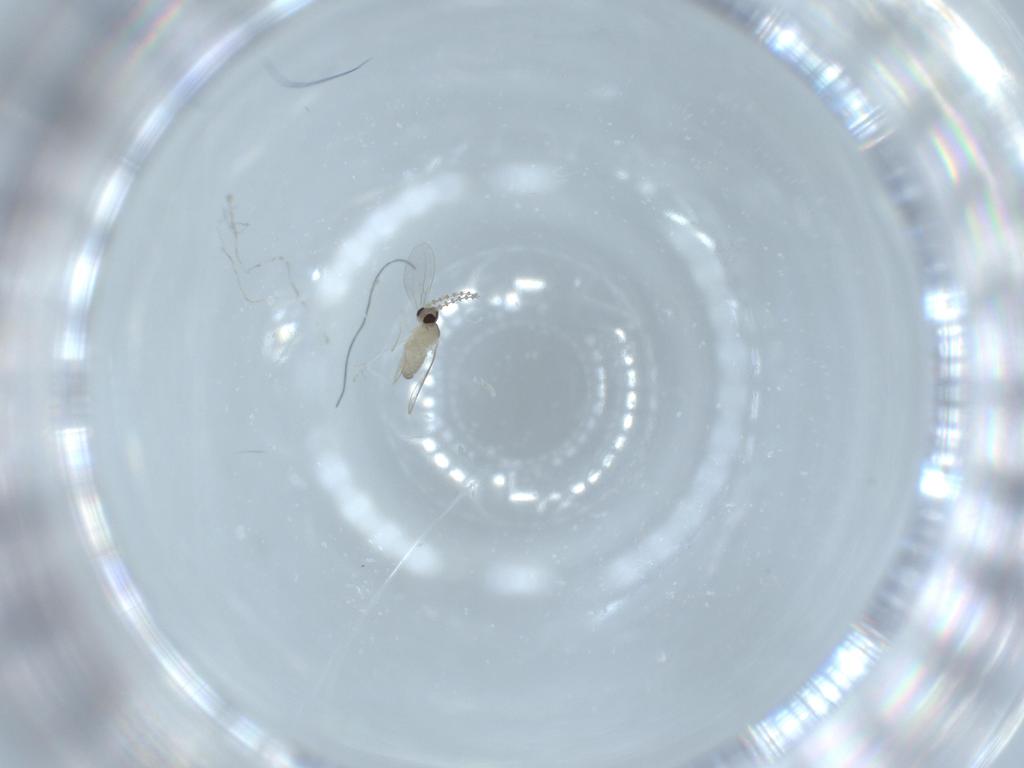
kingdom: Animalia
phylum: Arthropoda
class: Insecta
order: Diptera
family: Cecidomyiidae
